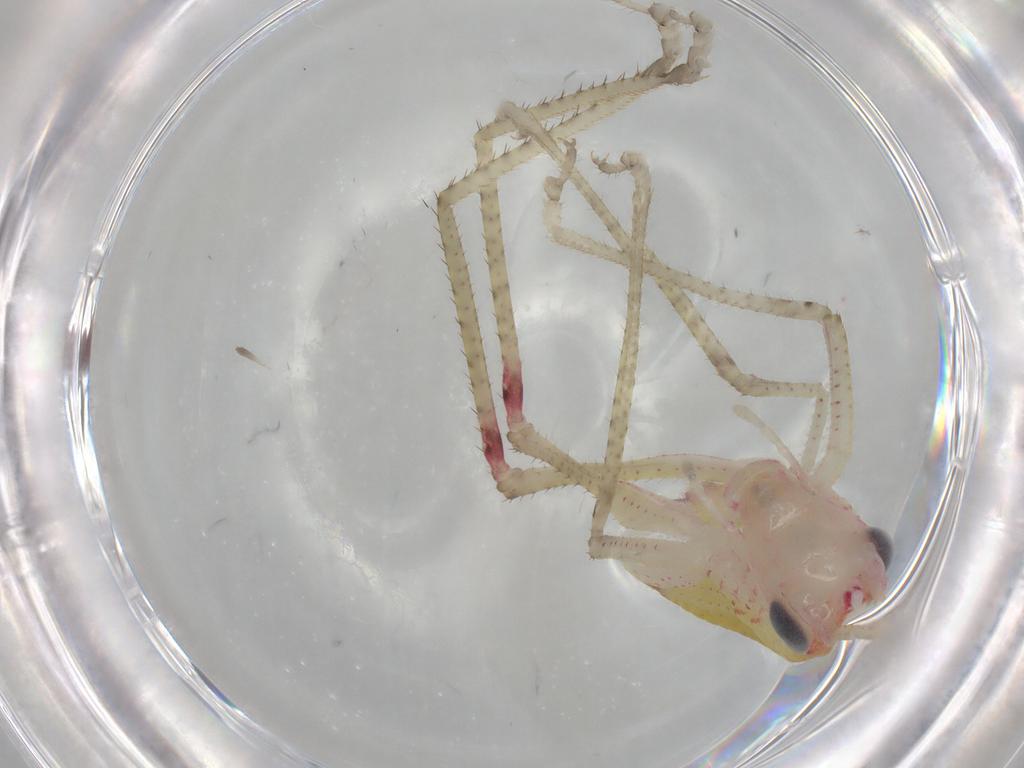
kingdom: Animalia
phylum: Arthropoda
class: Insecta
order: Orthoptera
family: Tettigoniidae
